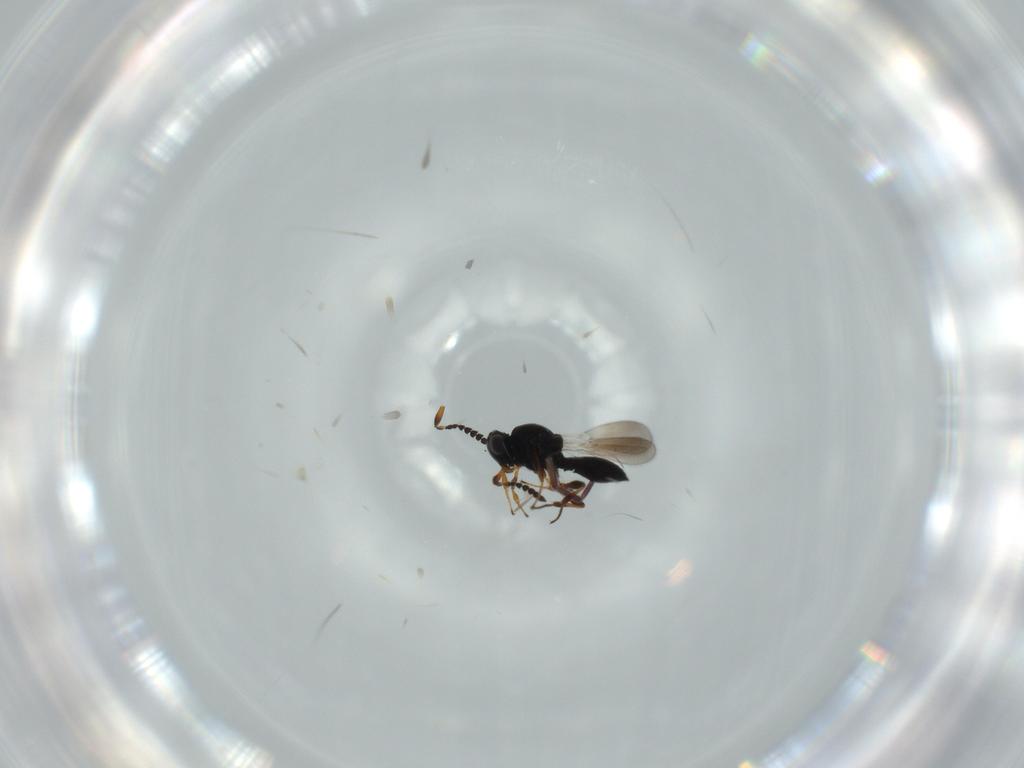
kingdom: Animalia
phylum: Arthropoda
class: Insecta
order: Hymenoptera
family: Platygastridae
